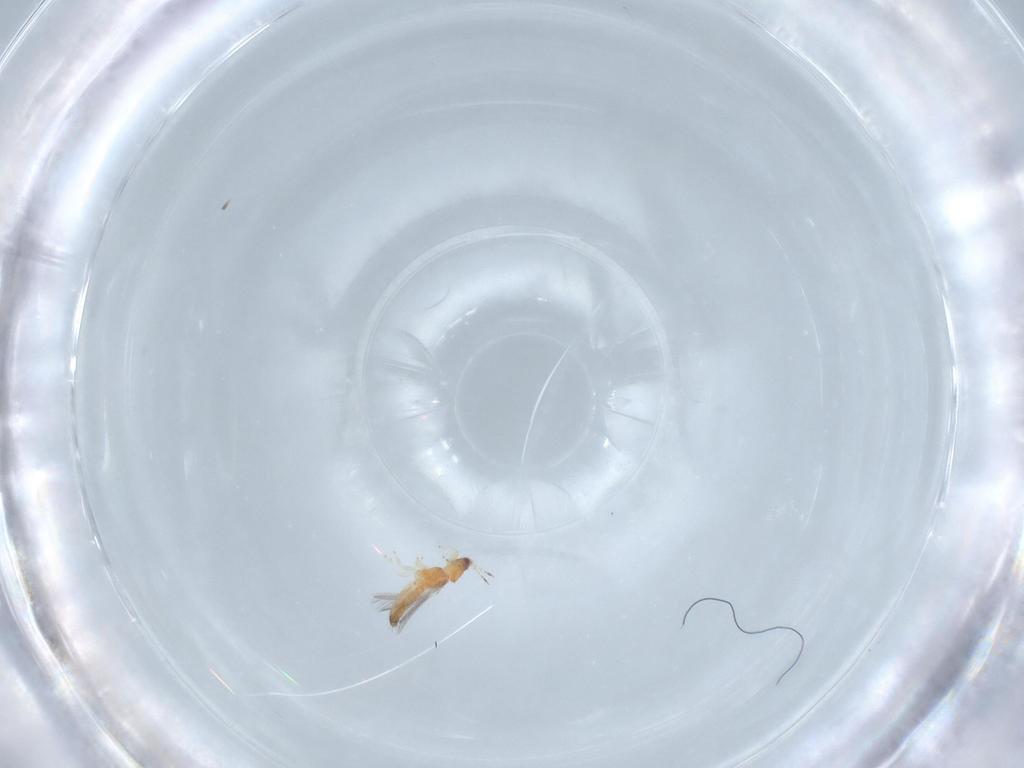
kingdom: Animalia
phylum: Arthropoda
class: Insecta
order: Thysanoptera
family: Thripidae
